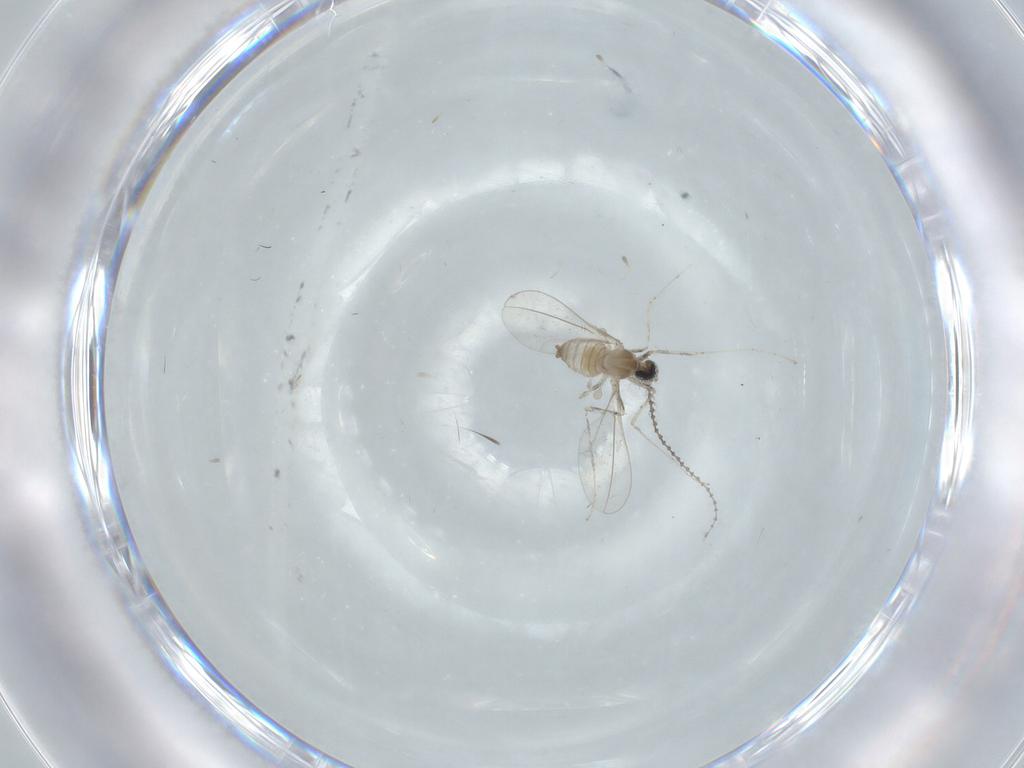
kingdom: Animalia
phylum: Arthropoda
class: Insecta
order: Diptera
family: Cecidomyiidae
